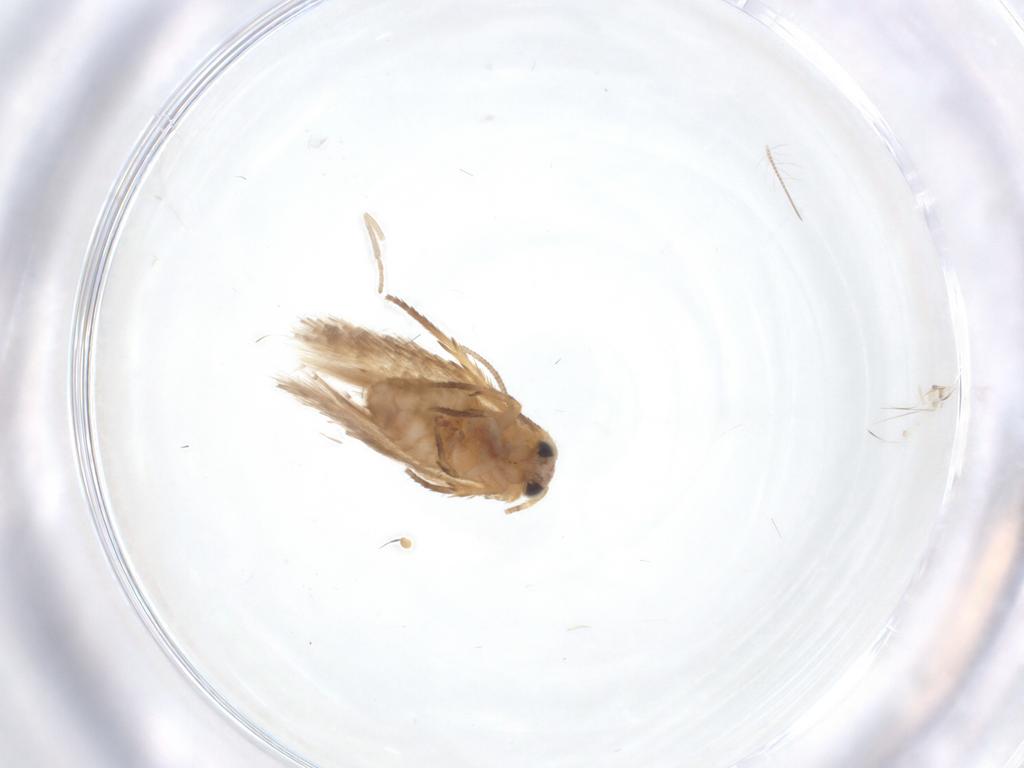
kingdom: Animalia
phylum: Arthropoda
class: Insecta
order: Lepidoptera
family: Nepticulidae
